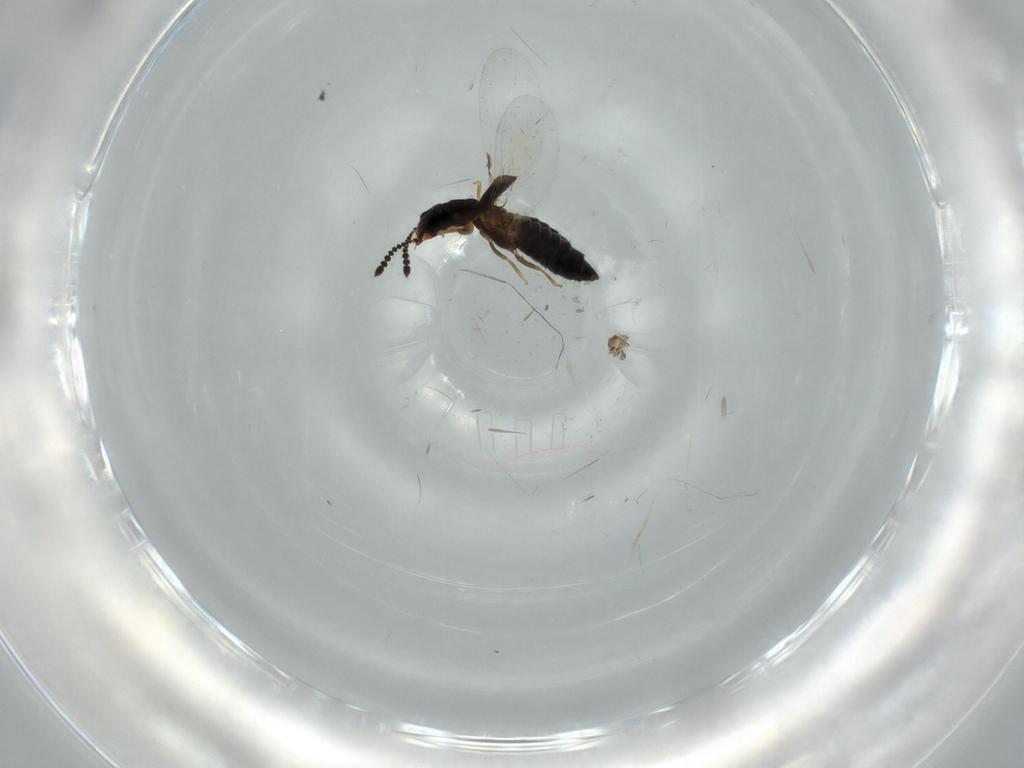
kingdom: Animalia
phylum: Arthropoda
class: Insecta
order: Coleoptera
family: Staphylinidae
